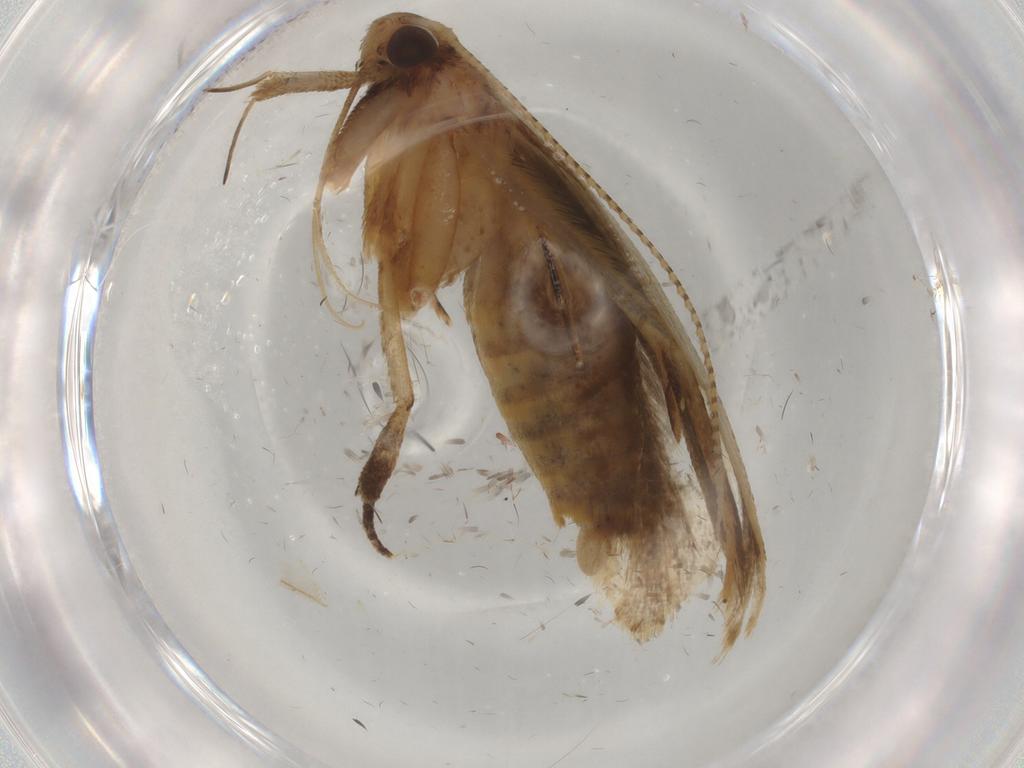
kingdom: Animalia
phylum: Arthropoda
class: Insecta
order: Lepidoptera
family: Gelechiidae
